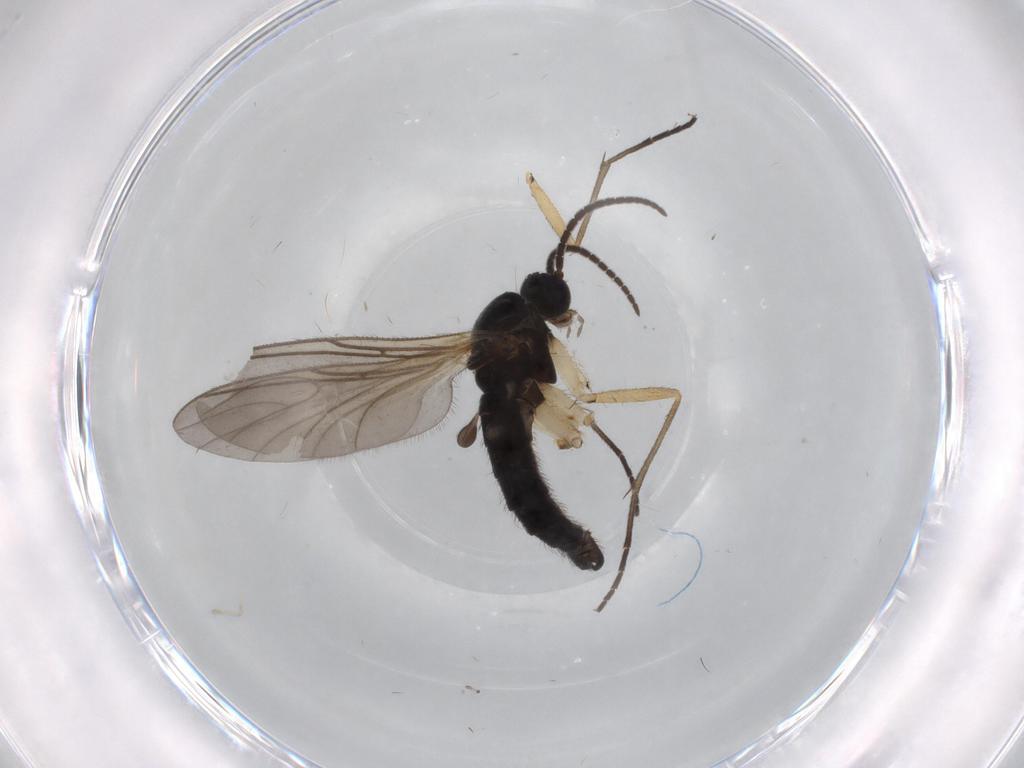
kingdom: Animalia
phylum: Arthropoda
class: Insecta
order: Diptera
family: Sciaridae
